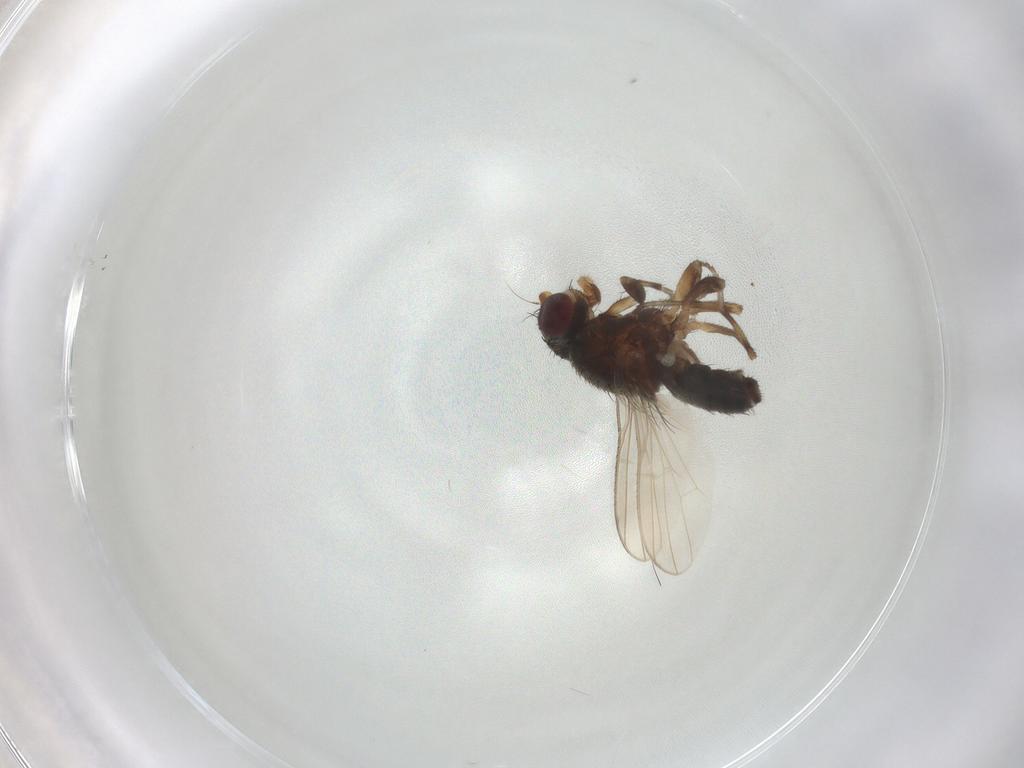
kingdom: Animalia
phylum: Arthropoda
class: Insecta
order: Diptera
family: Heleomyzidae
